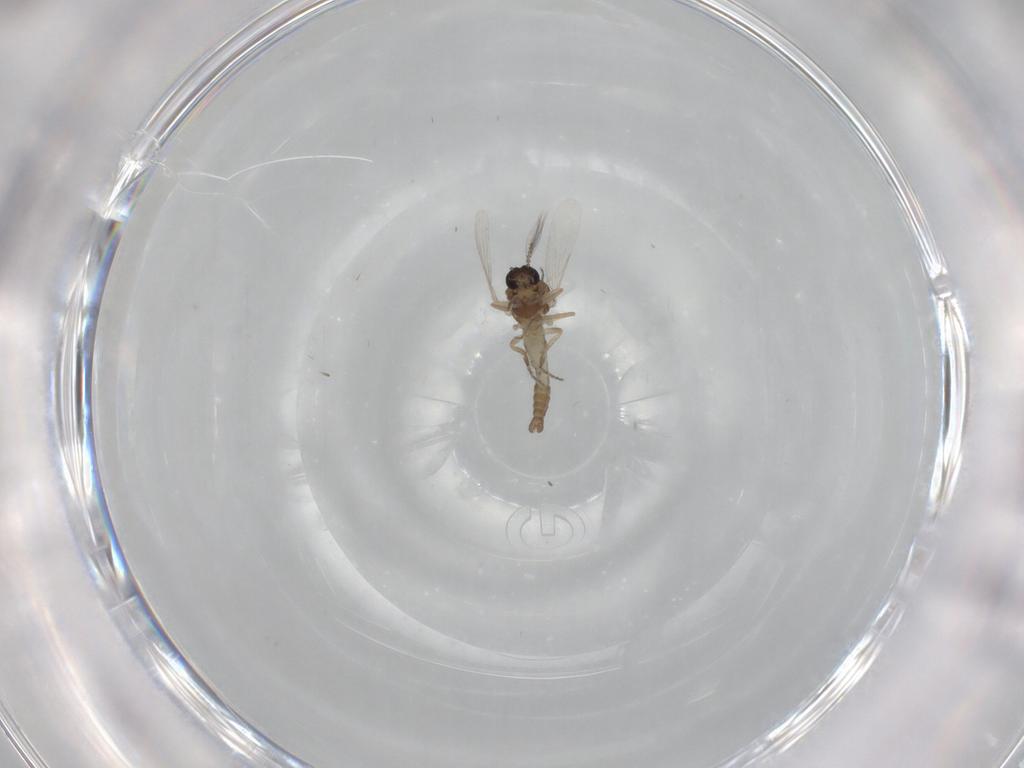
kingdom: Animalia
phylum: Arthropoda
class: Insecta
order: Diptera
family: Ceratopogonidae
